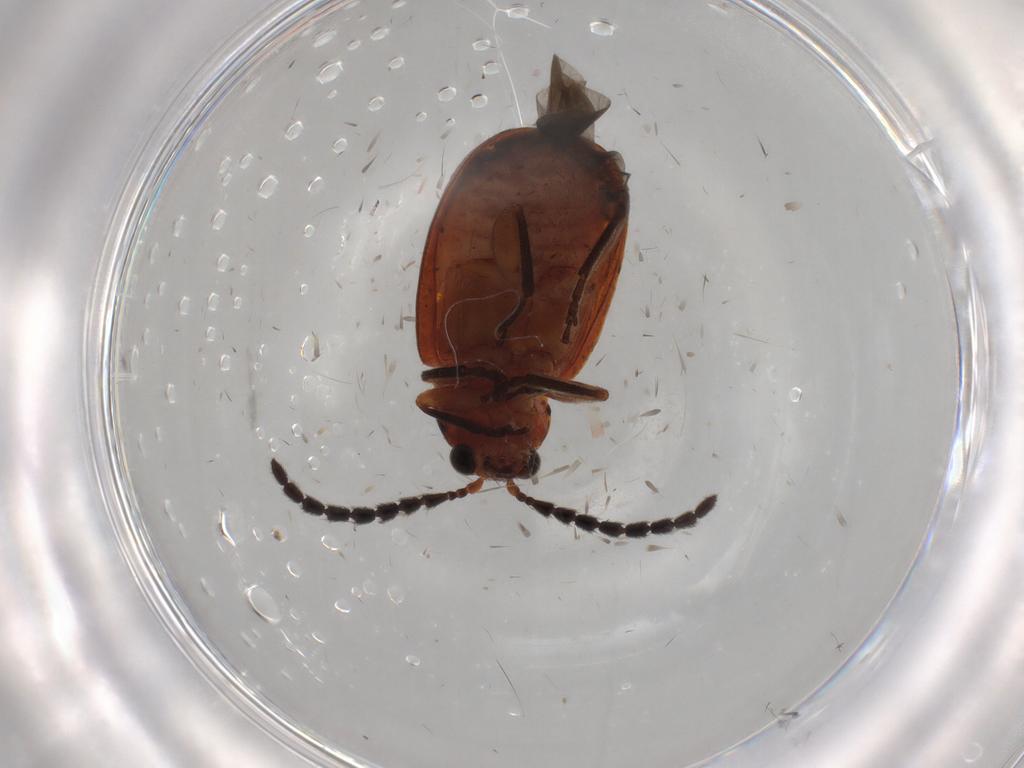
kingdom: Animalia
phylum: Arthropoda
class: Insecta
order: Coleoptera
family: Chrysomelidae
